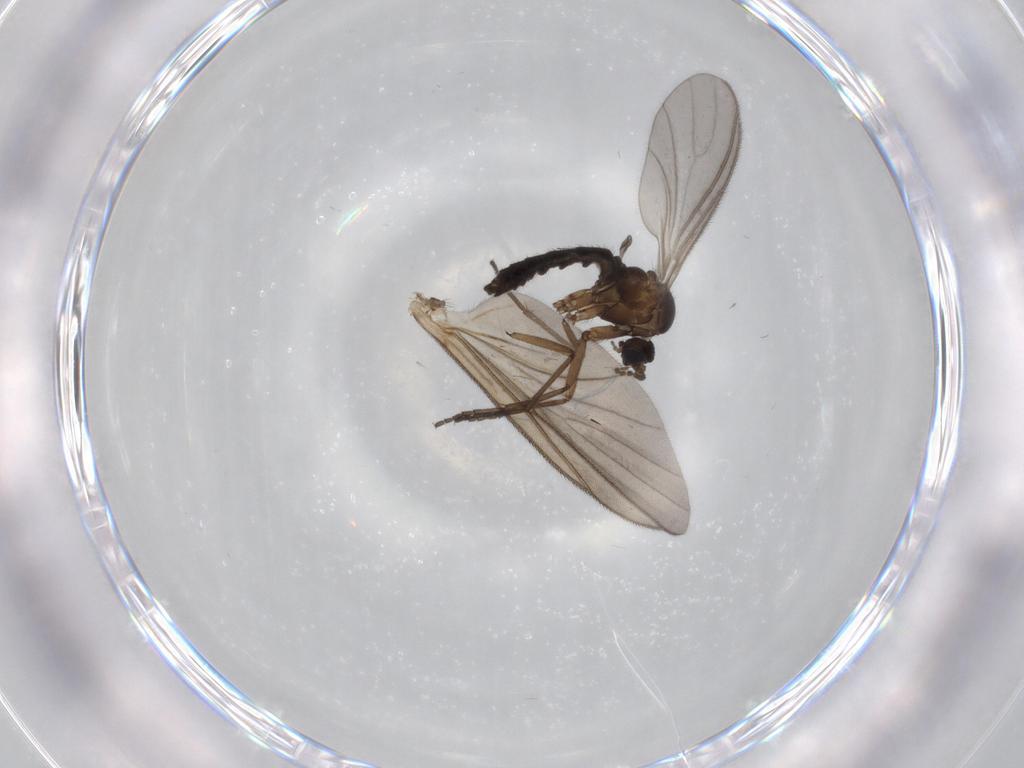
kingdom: Animalia
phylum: Arthropoda
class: Insecta
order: Diptera
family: Sciaridae
